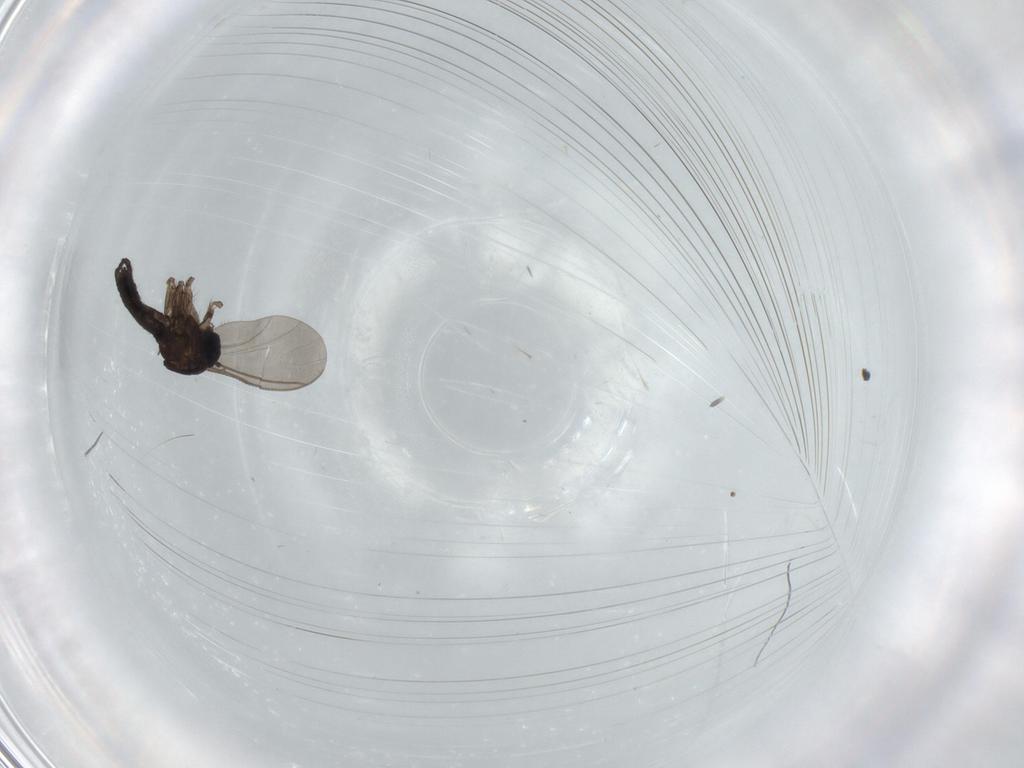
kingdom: Animalia
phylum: Arthropoda
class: Insecta
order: Diptera
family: Sciaridae
